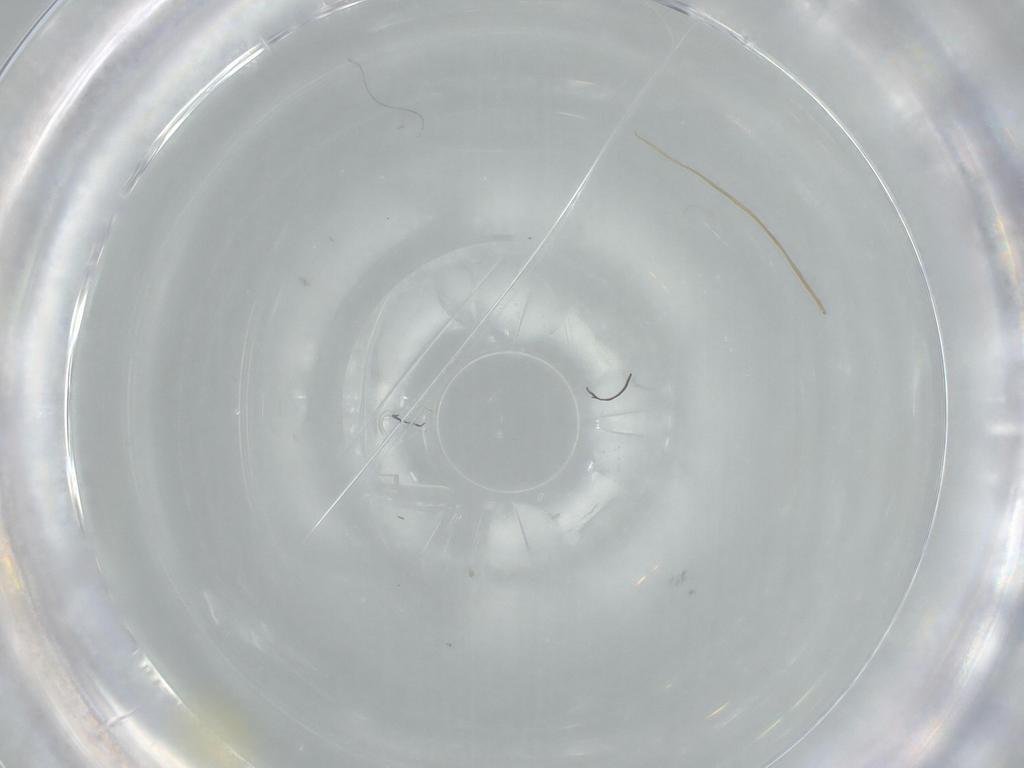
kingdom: Animalia
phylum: Arthropoda
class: Insecta
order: Hemiptera
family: Aleyrodidae
